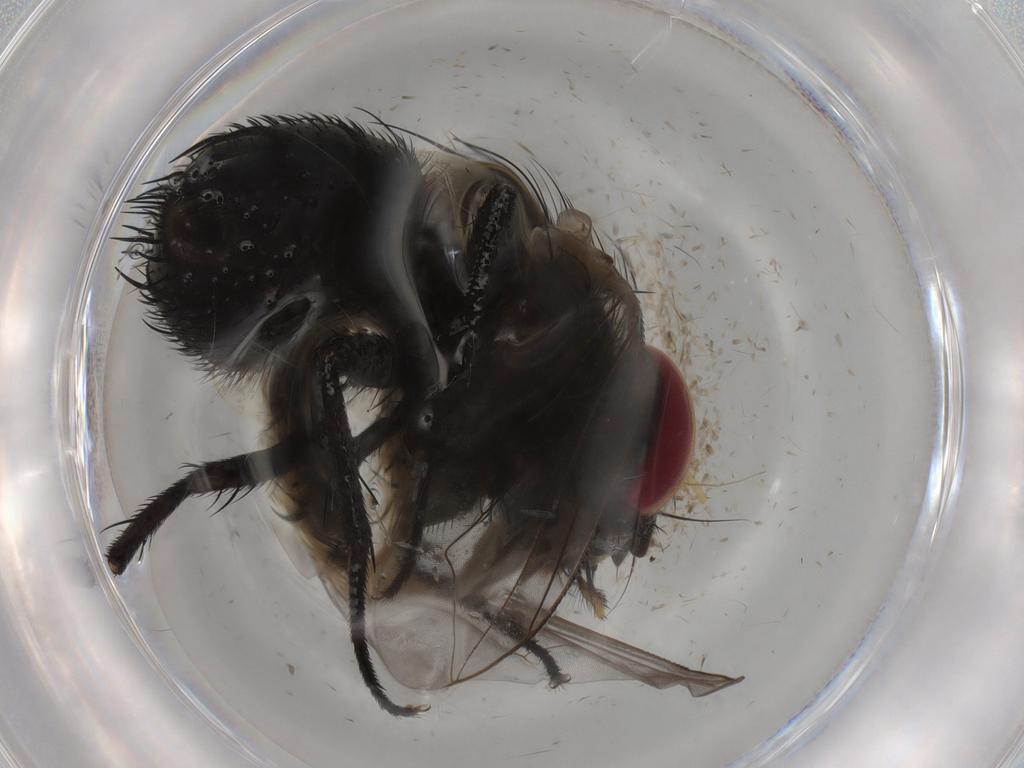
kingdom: Animalia
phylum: Arthropoda
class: Insecta
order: Diptera
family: Tachinidae
